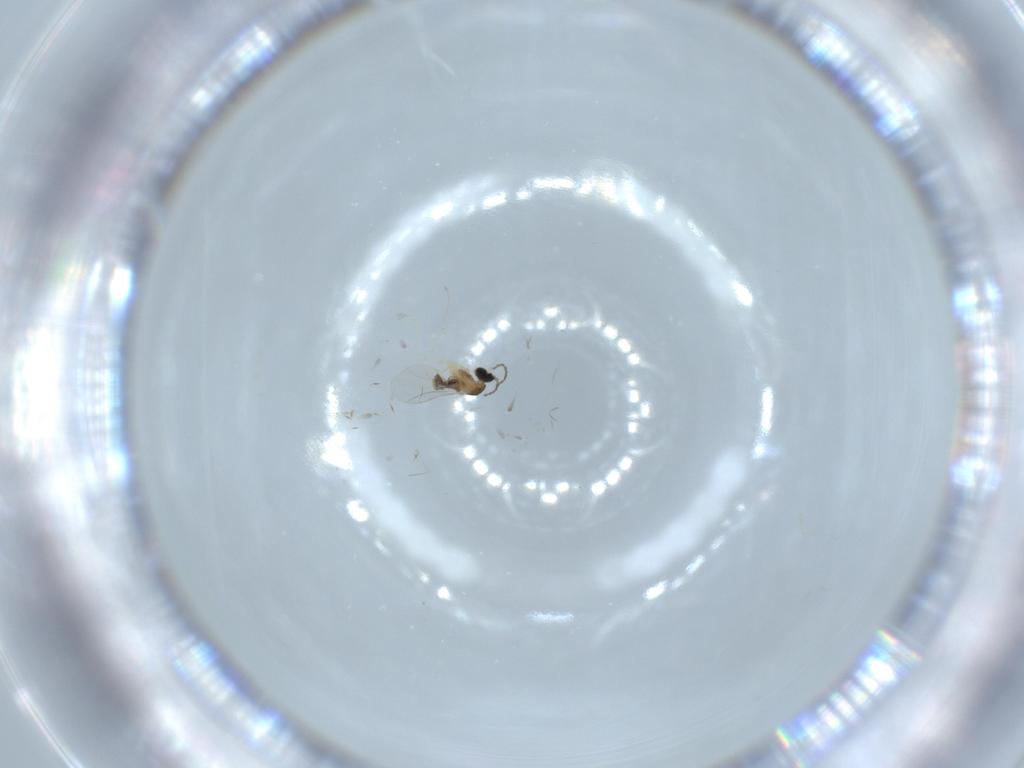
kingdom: Animalia
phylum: Arthropoda
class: Insecta
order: Diptera
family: Cecidomyiidae
